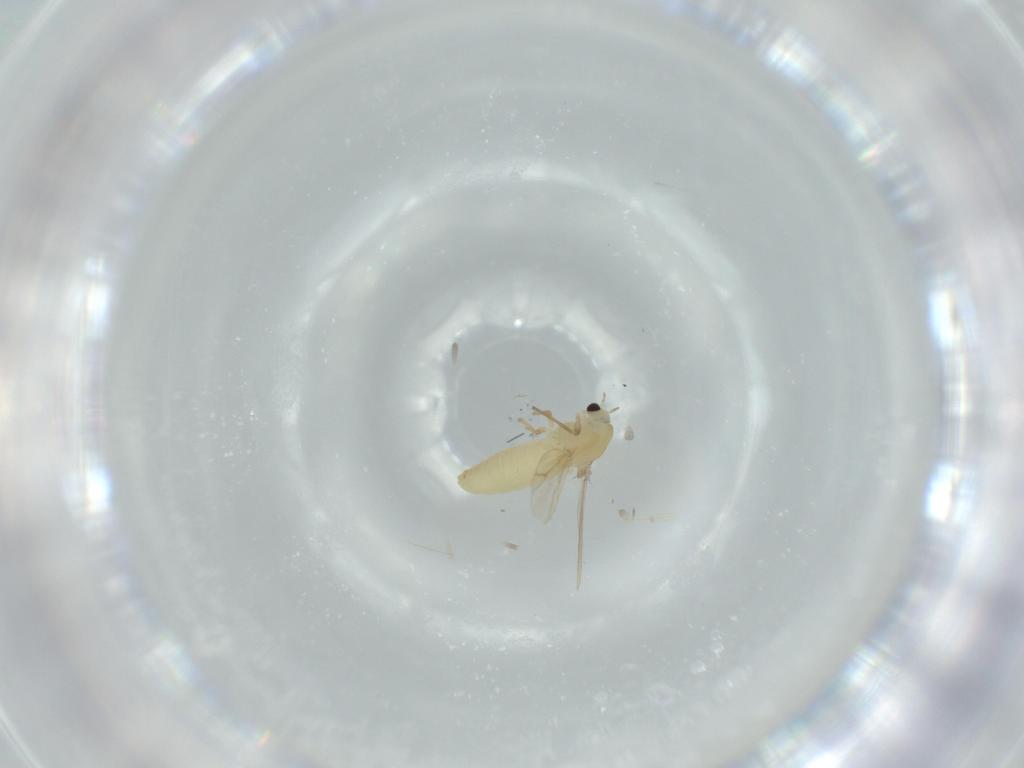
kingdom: Animalia
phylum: Arthropoda
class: Insecta
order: Diptera
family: Chironomidae
